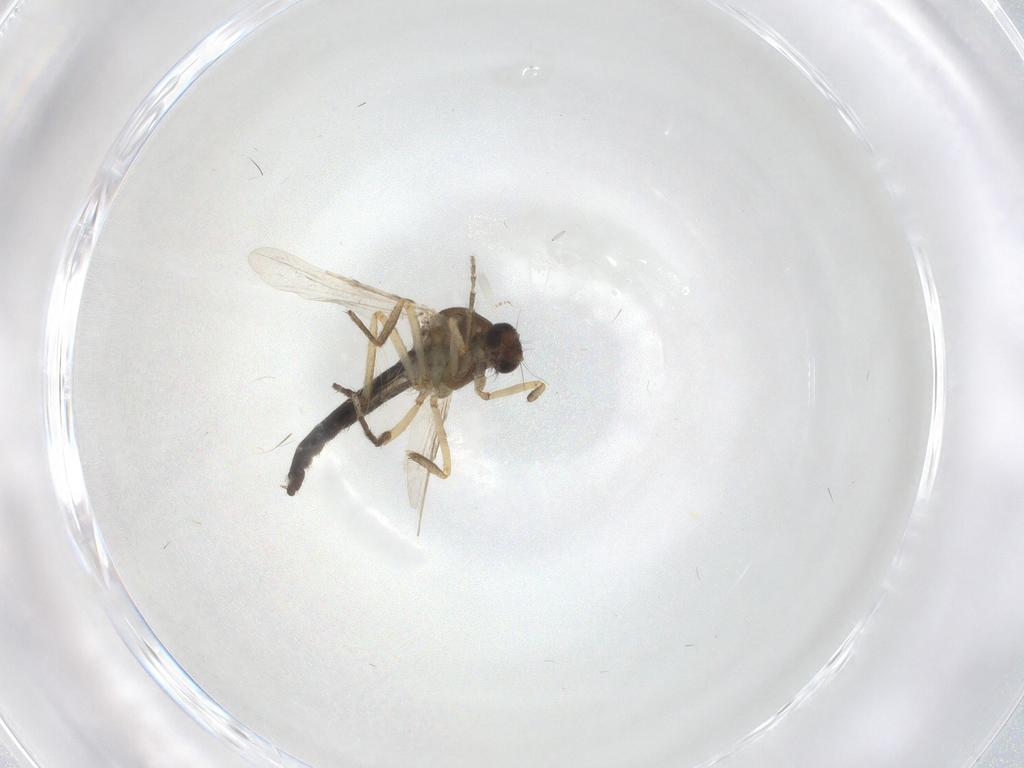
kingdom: Animalia
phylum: Arthropoda
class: Insecta
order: Diptera
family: Ceratopogonidae
